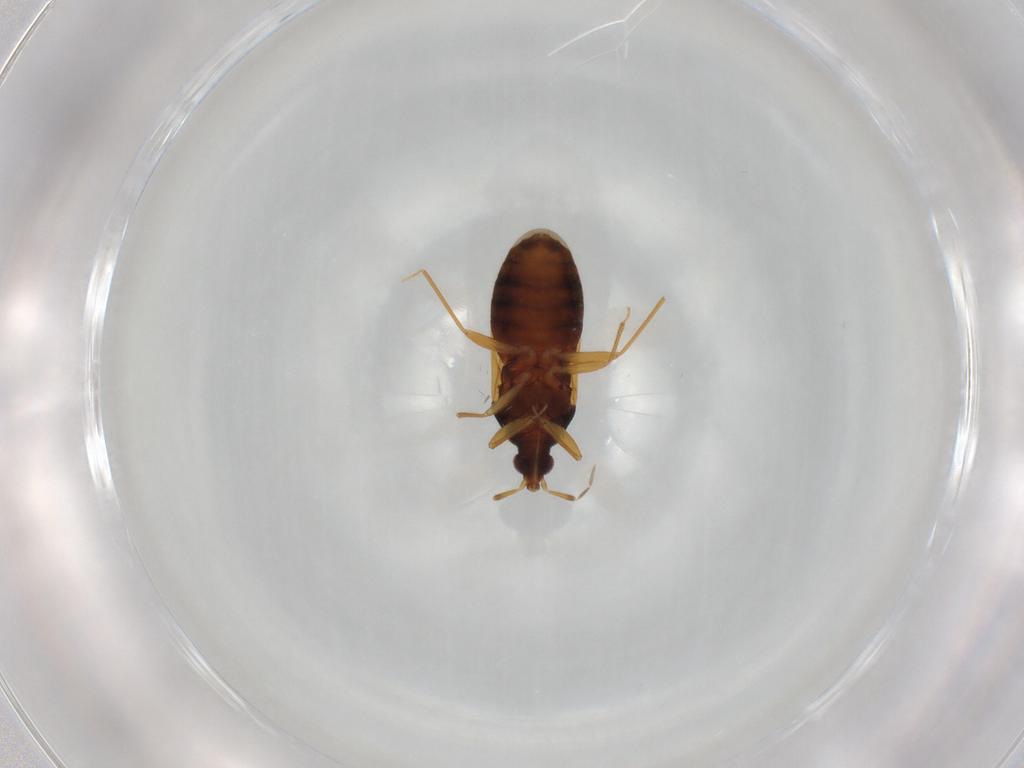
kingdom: Animalia
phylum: Arthropoda
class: Insecta
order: Hemiptera
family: Anthocoridae
